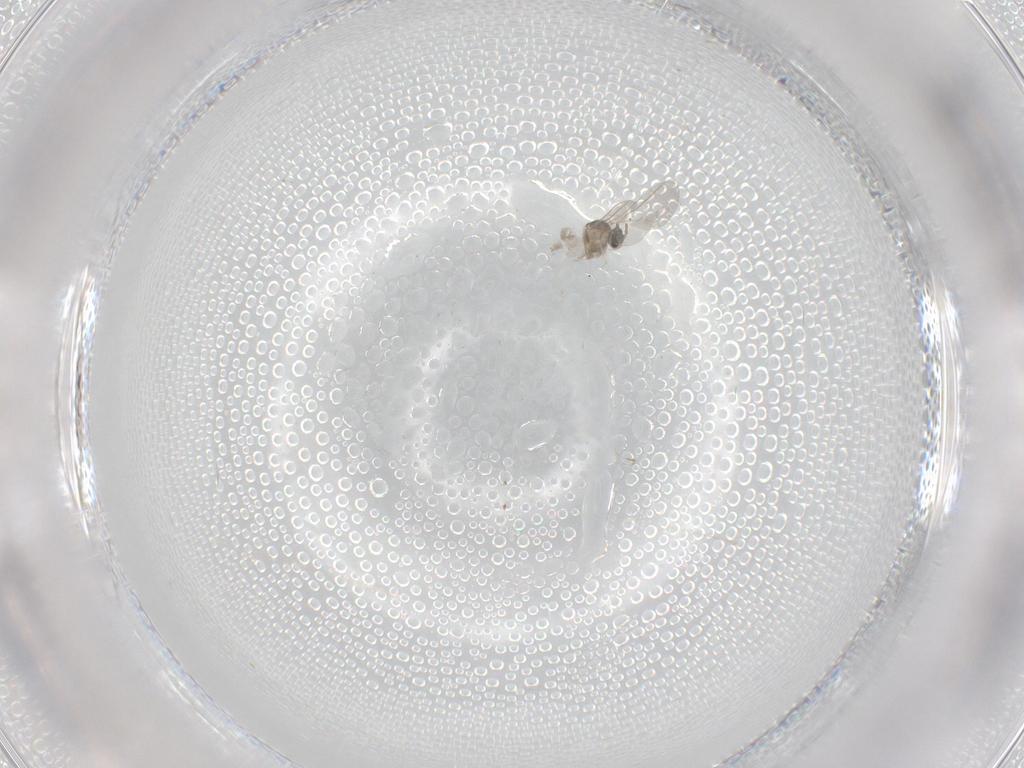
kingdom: Animalia
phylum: Arthropoda
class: Insecta
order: Diptera
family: Cecidomyiidae
